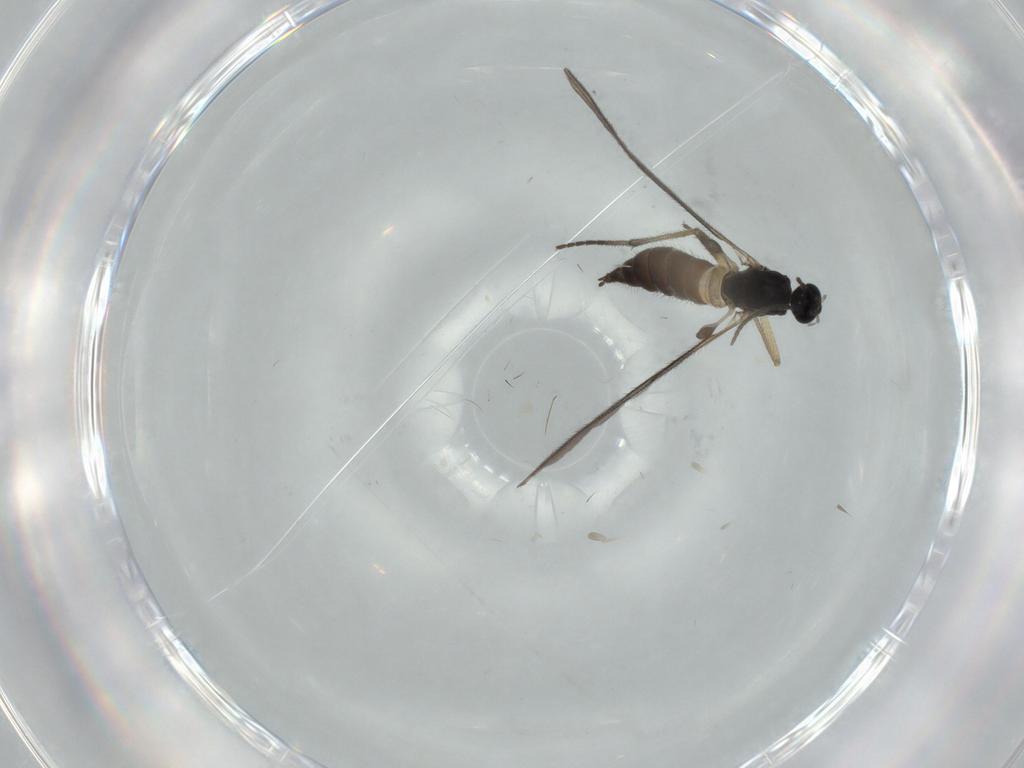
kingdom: Animalia
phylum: Arthropoda
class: Insecta
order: Diptera
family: Sciaridae
